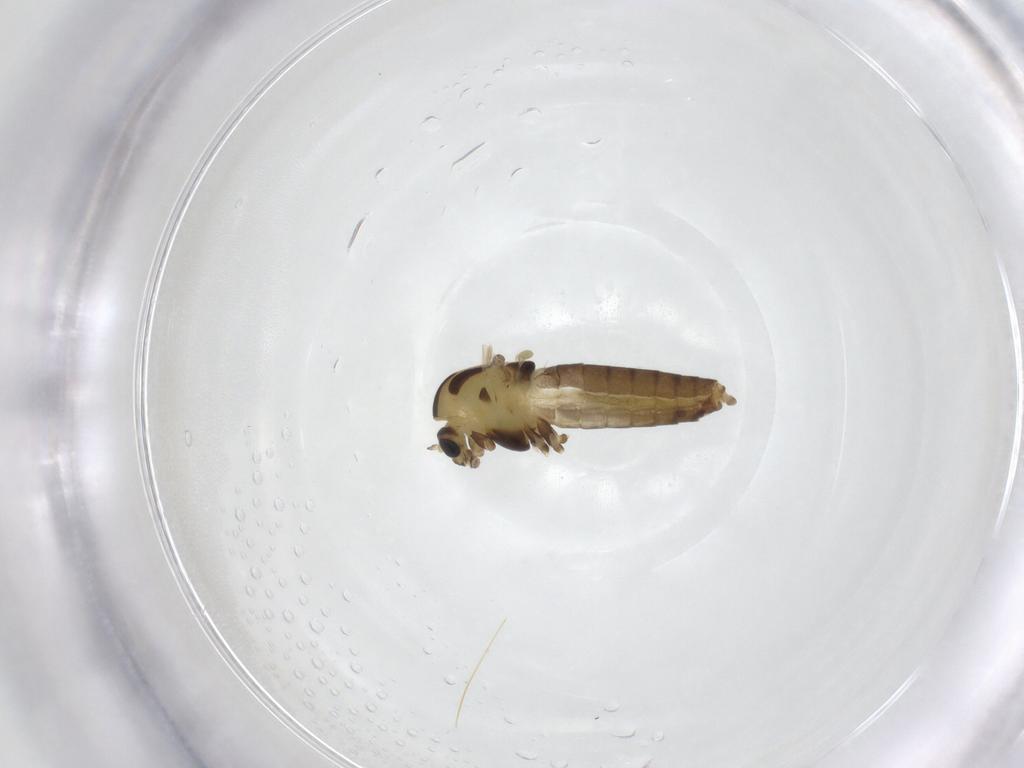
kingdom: Animalia
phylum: Arthropoda
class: Insecta
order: Diptera
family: Chironomidae
